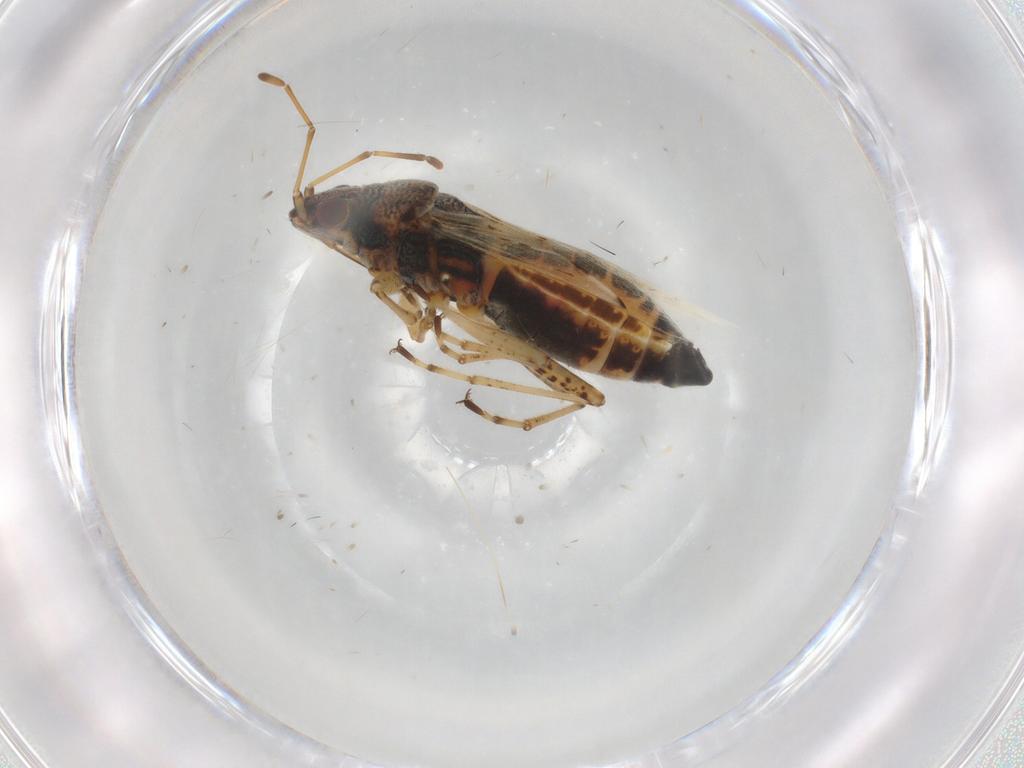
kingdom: Animalia
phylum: Arthropoda
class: Insecta
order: Hemiptera
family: Lygaeidae
